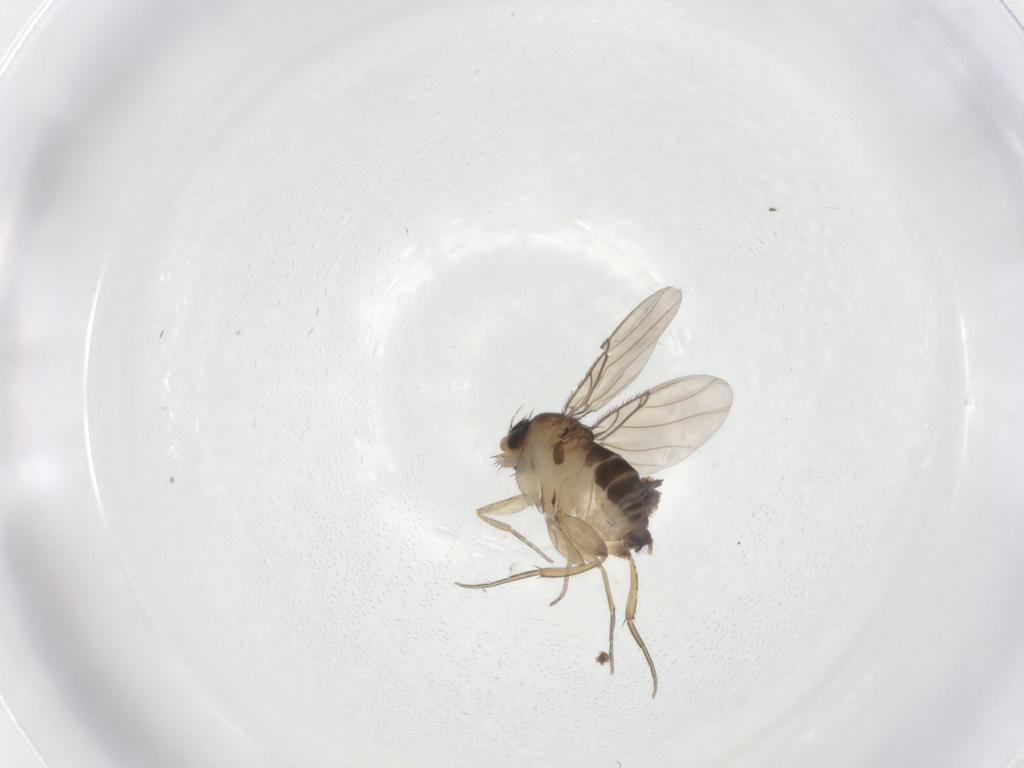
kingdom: Animalia
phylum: Arthropoda
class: Insecta
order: Diptera
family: Phoridae
